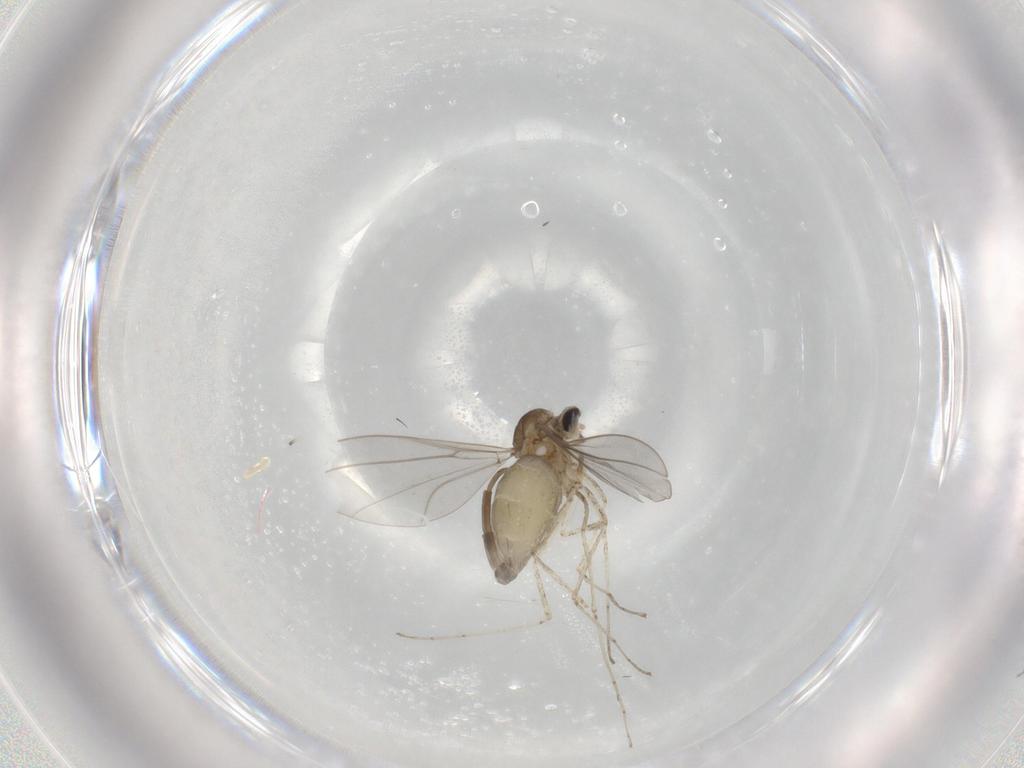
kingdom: Animalia
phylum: Arthropoda
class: Insecta
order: Diptera
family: Cecidomyiidae
